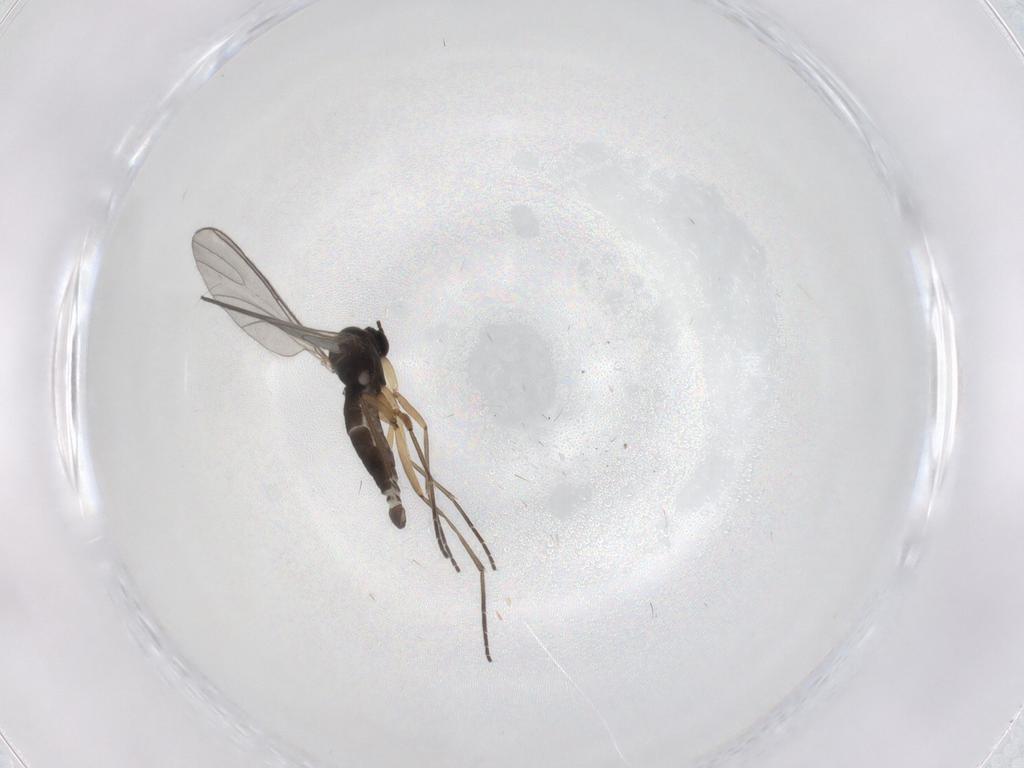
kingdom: Animalia
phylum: Arthropoda
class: Insecta
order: Diptera
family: Sciaridae
